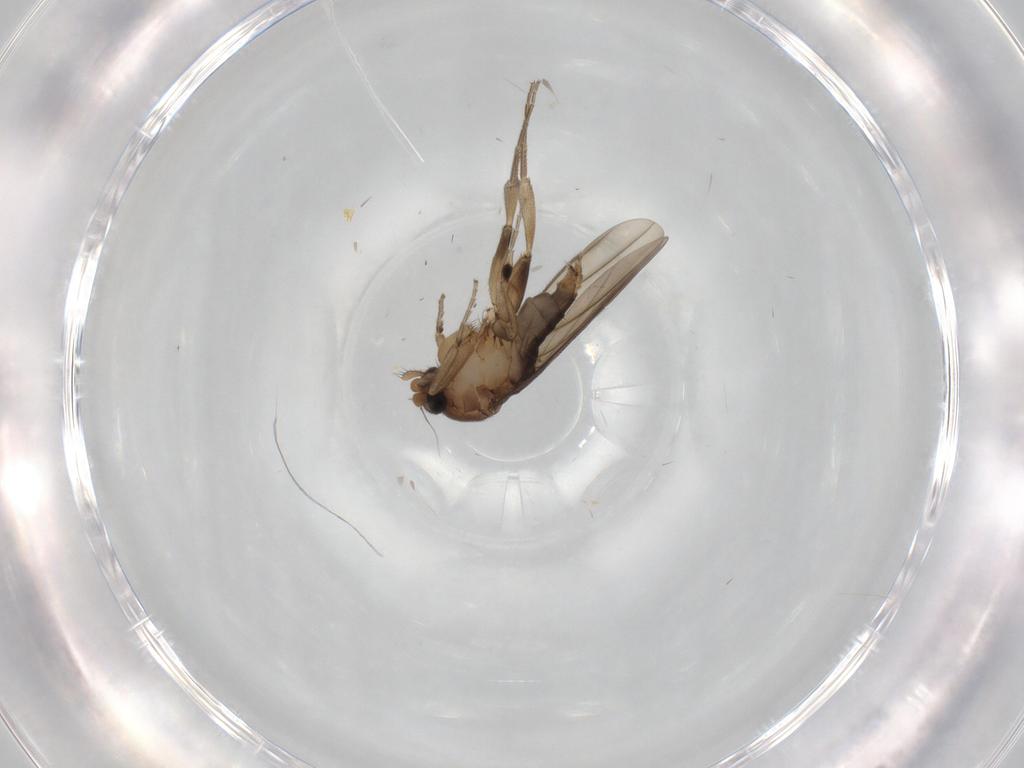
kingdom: Animalia
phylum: Arthropoda
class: Insecta
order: Diptera
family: Phoridae
